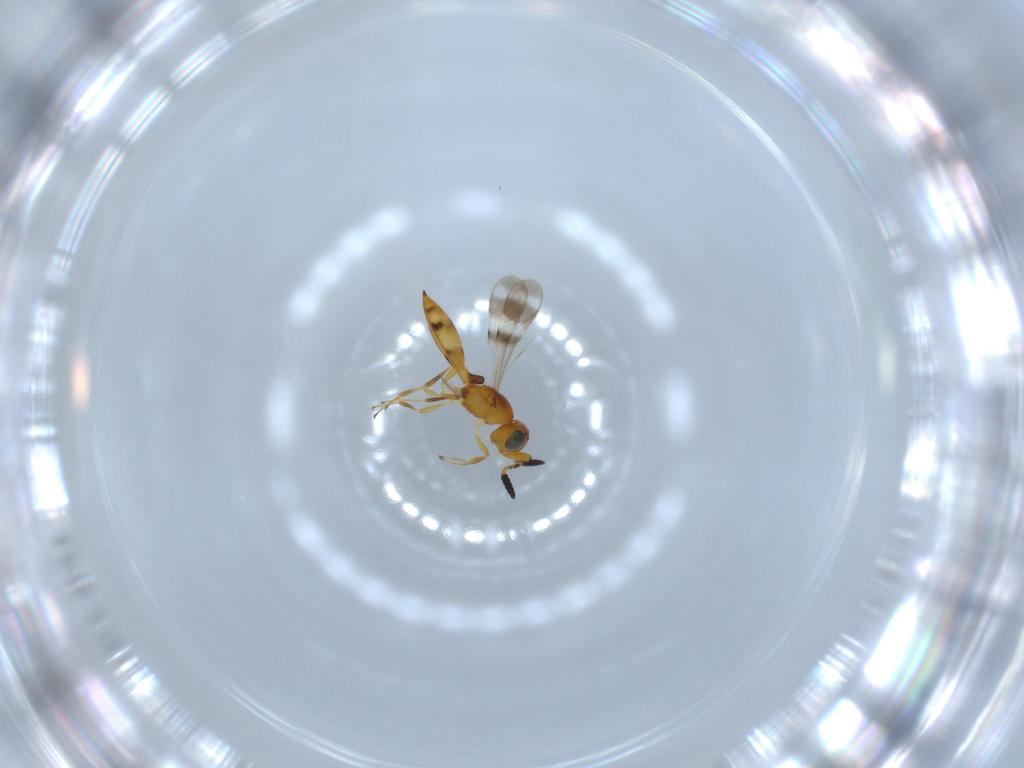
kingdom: Animalia
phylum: Arthropoda
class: Insecta
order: Hymenoptera
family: Scelionidae
